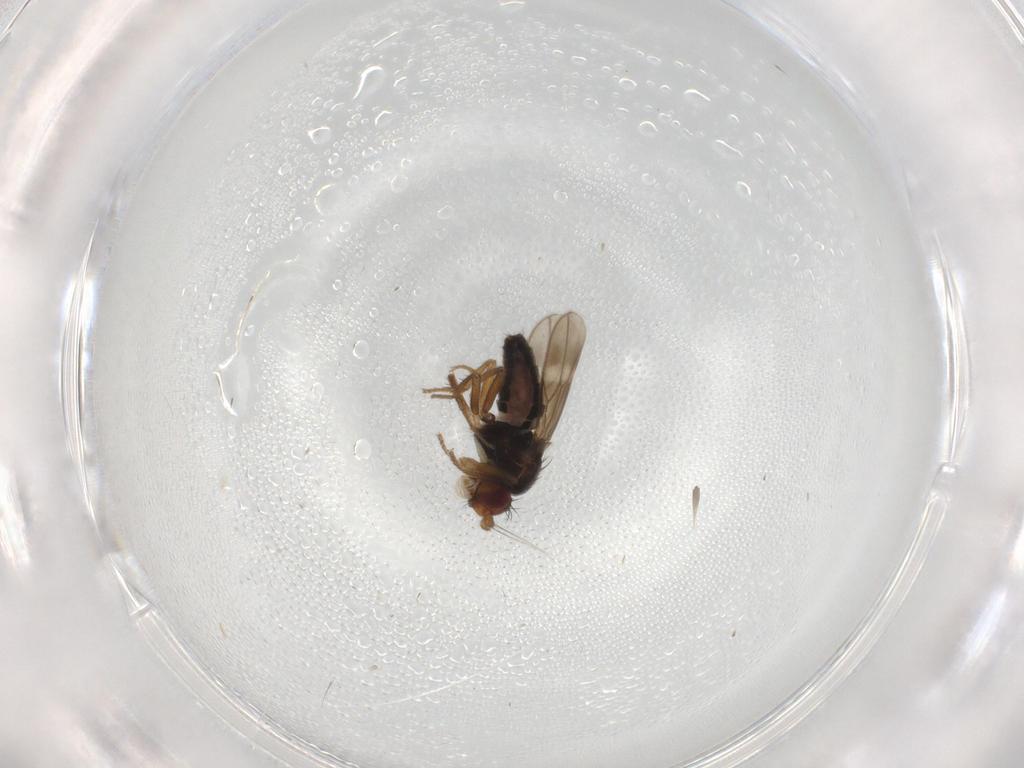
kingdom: Animalia
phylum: Arthropoda
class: Insecta
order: Diptera
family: Sphaeroceridae
